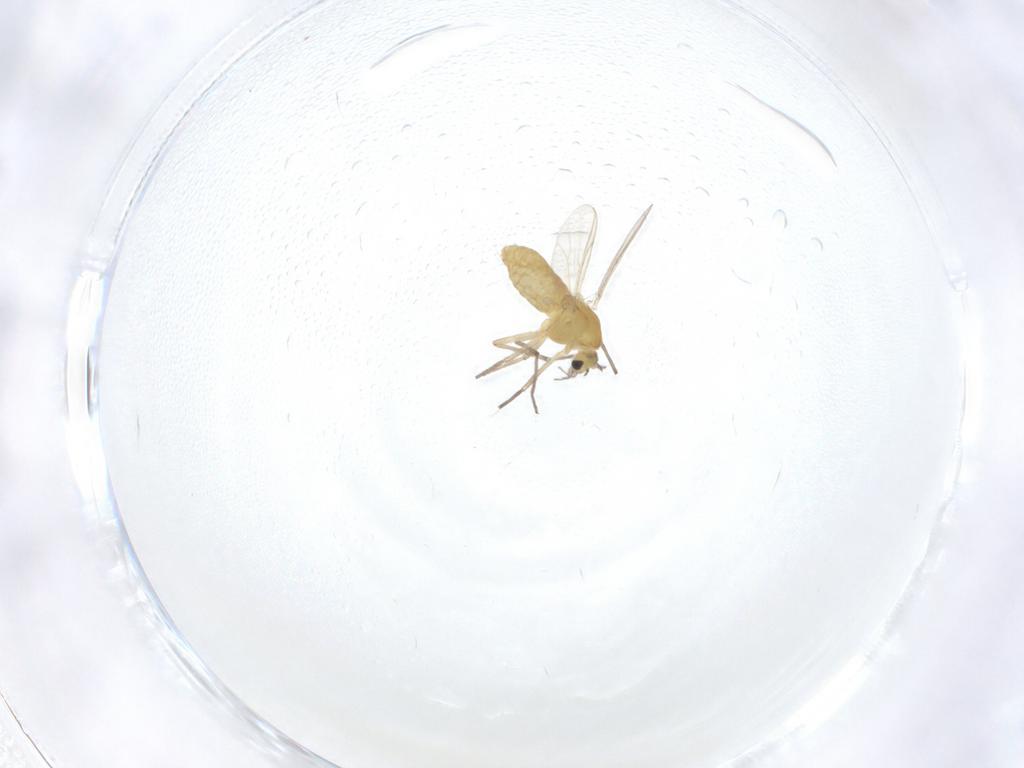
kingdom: Animalia
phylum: Arthropoda
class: Insecta
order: Diptera
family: Chironomidae
